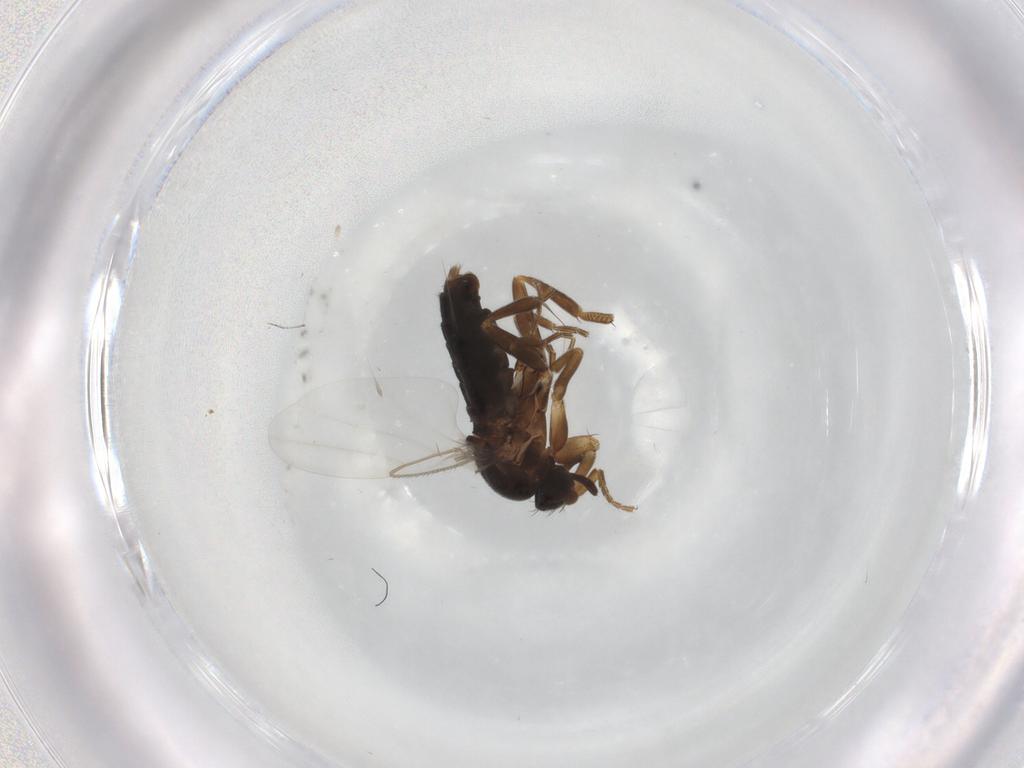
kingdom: Animalia
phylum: Arthropoda
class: Insecta
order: Diptera
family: Phoridae
